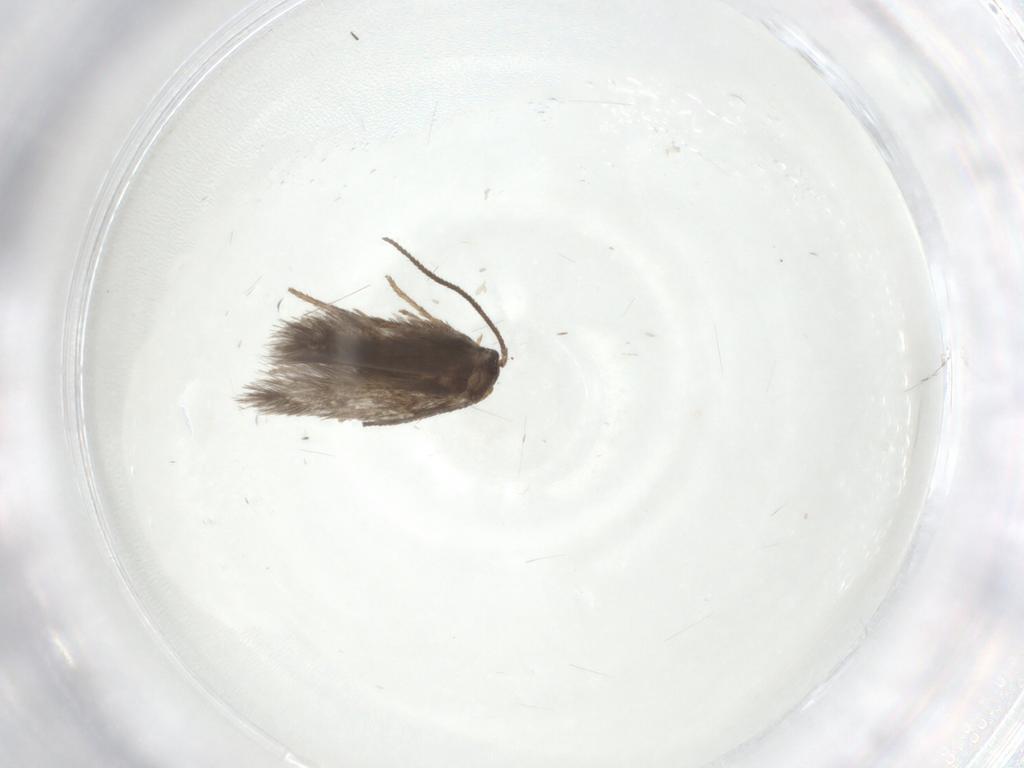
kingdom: Animalia
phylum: Arthropoda
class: Insecta
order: Lepidoptera
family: Nepticulidae
